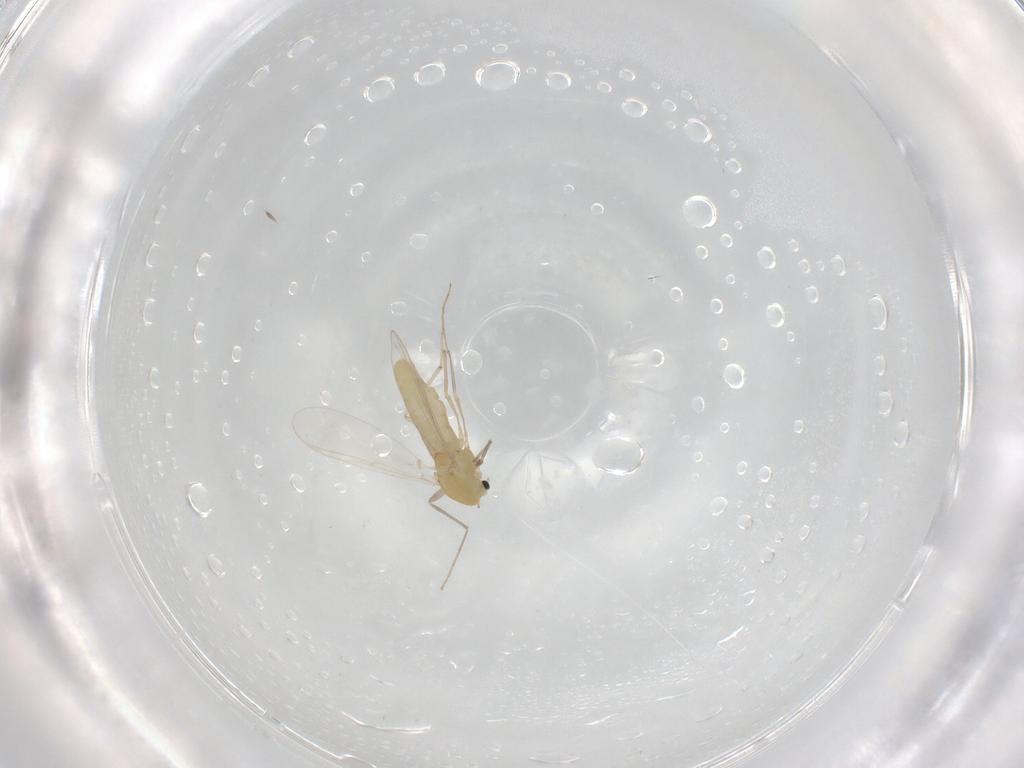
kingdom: Animalia
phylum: Arthropoda
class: Insecta
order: Diptera
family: Chironomidae
